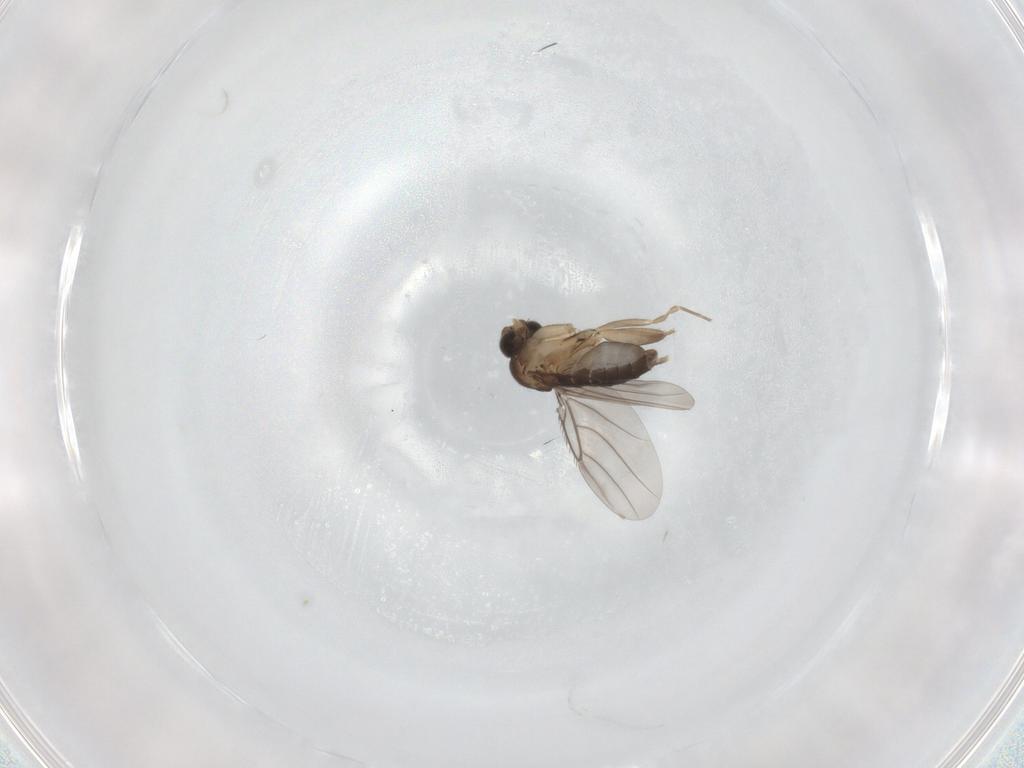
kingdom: Animalia
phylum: Arthropoda
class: Insecta
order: Diptera
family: Phoridae
